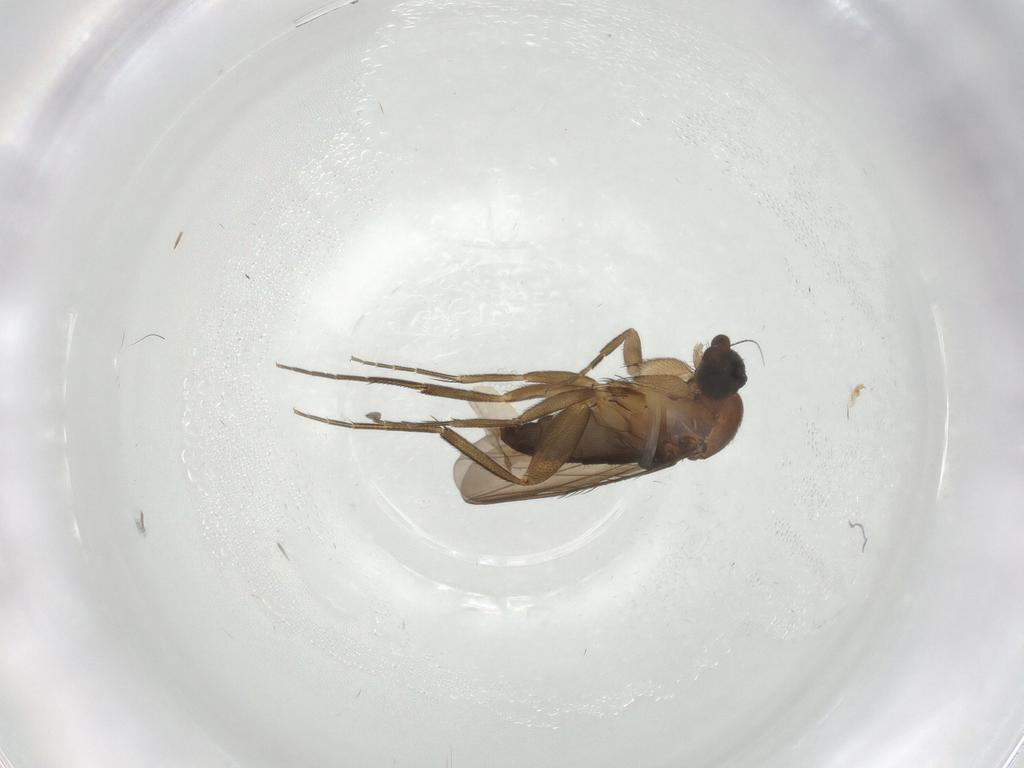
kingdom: Animalia
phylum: Arthropoda
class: Insecta
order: Diptera
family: Phoridae
